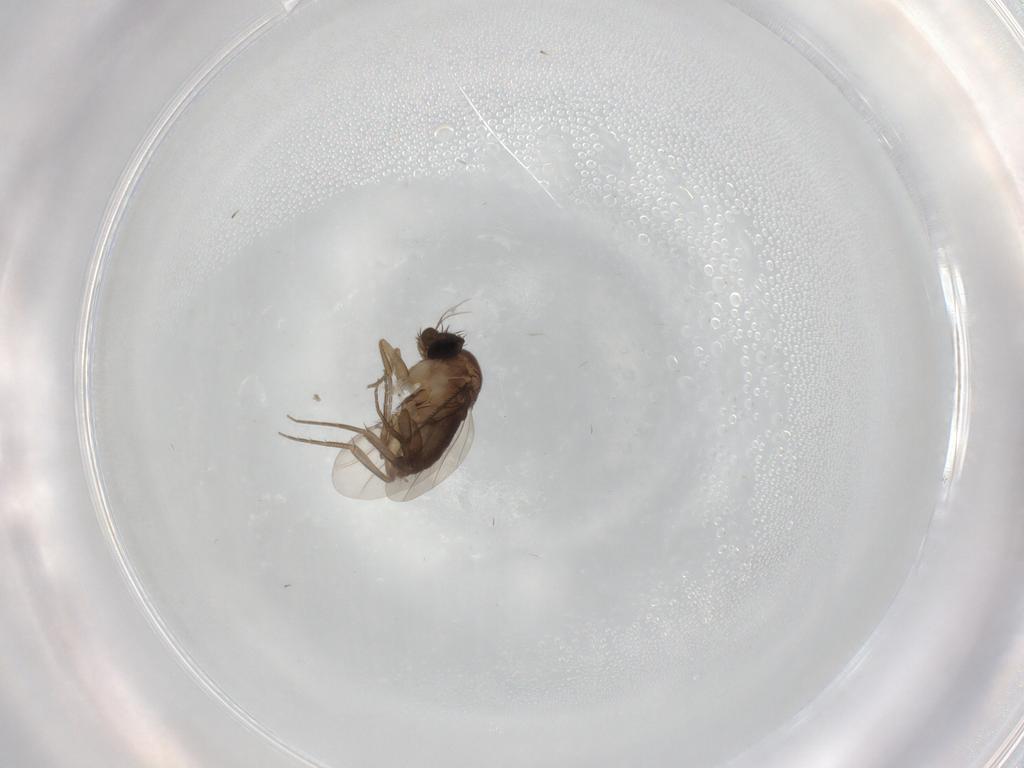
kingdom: Animalia
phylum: Arthropoda
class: Insecta
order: Diptera
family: Phoridae
